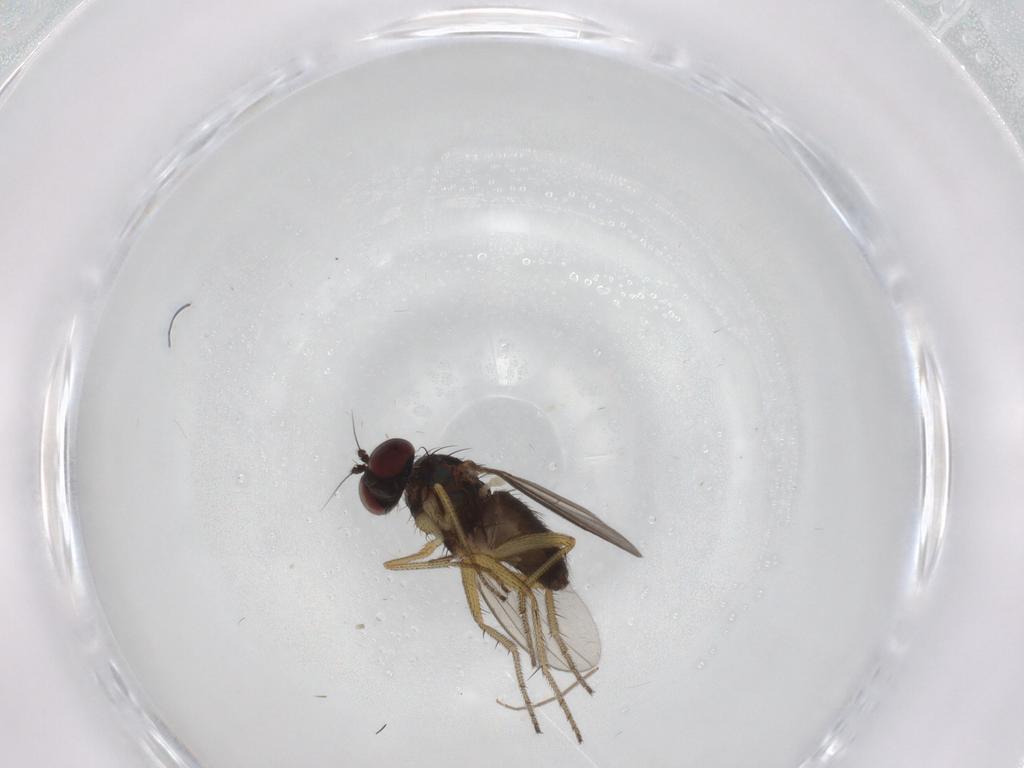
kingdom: Animalia
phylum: Arthropoda
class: Insecta
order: Diptera
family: Dolichopodidae
